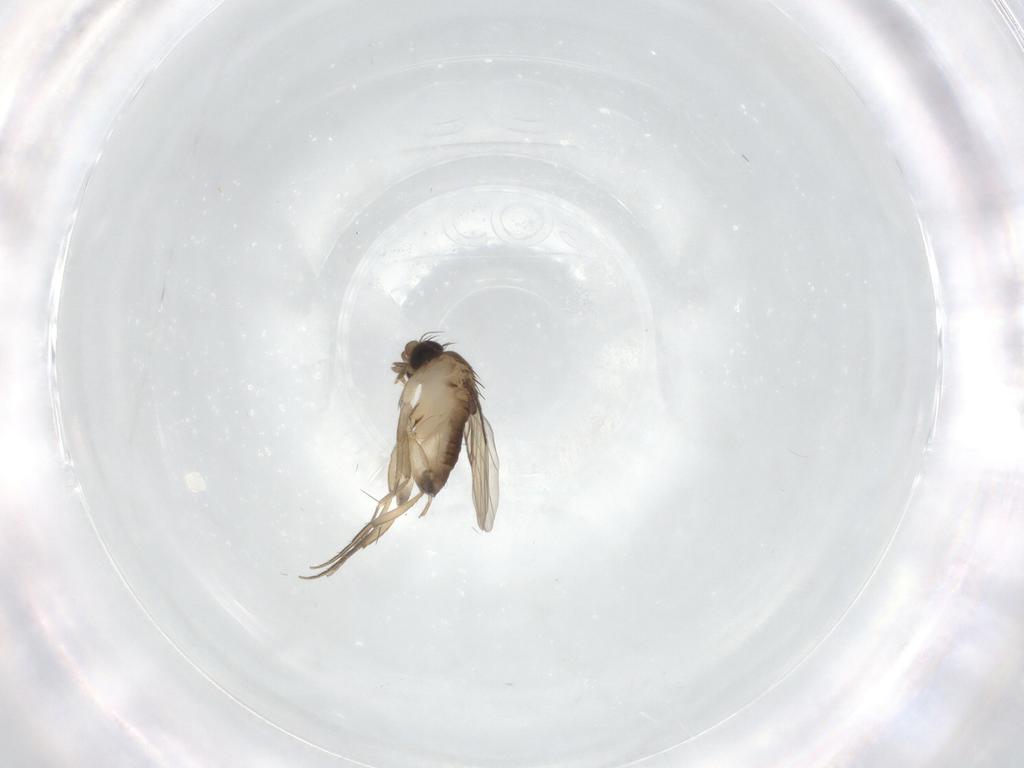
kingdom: Animalia
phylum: Arthropoda
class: Insecta
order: Diptera
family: Phoridae
